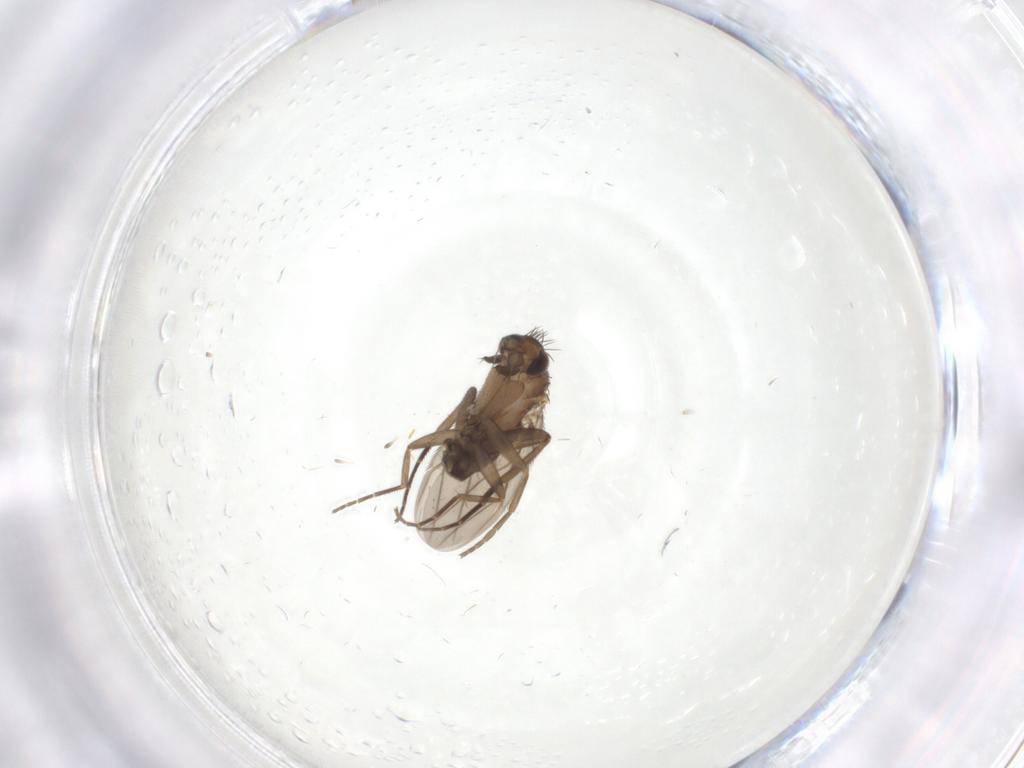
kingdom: Animalia
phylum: Arthropoda
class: Insecta
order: Diptera
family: Phoridae
